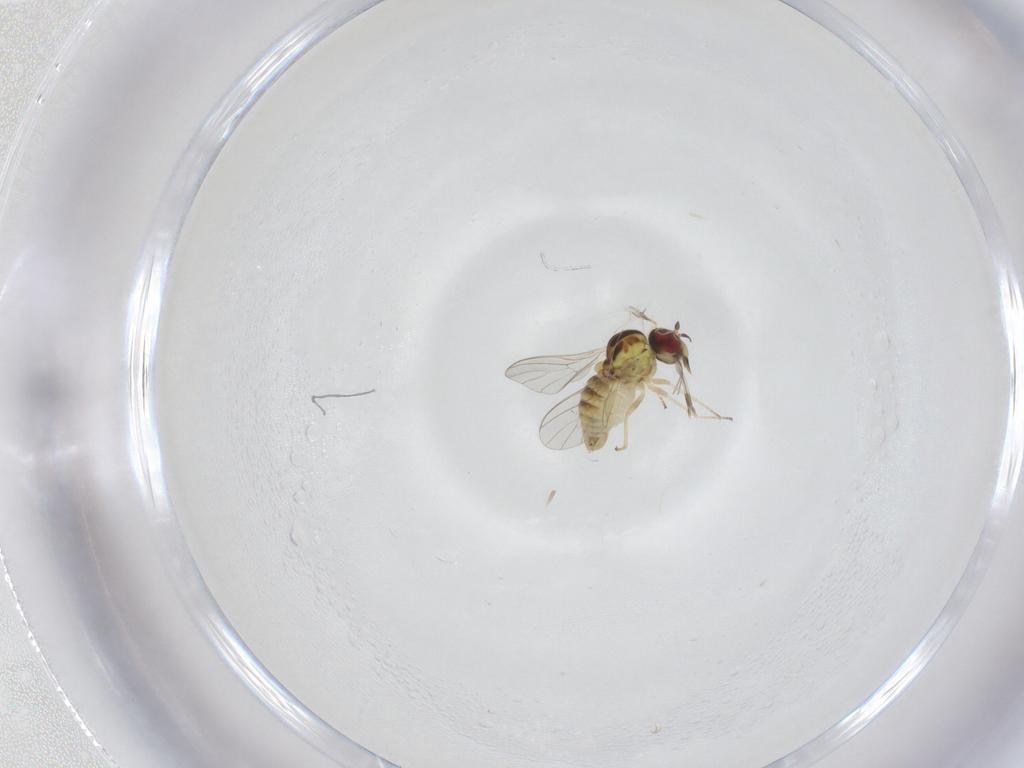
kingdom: Animalia
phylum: Arthropoda
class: Insecta
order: Diptera
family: Bombyliidae
